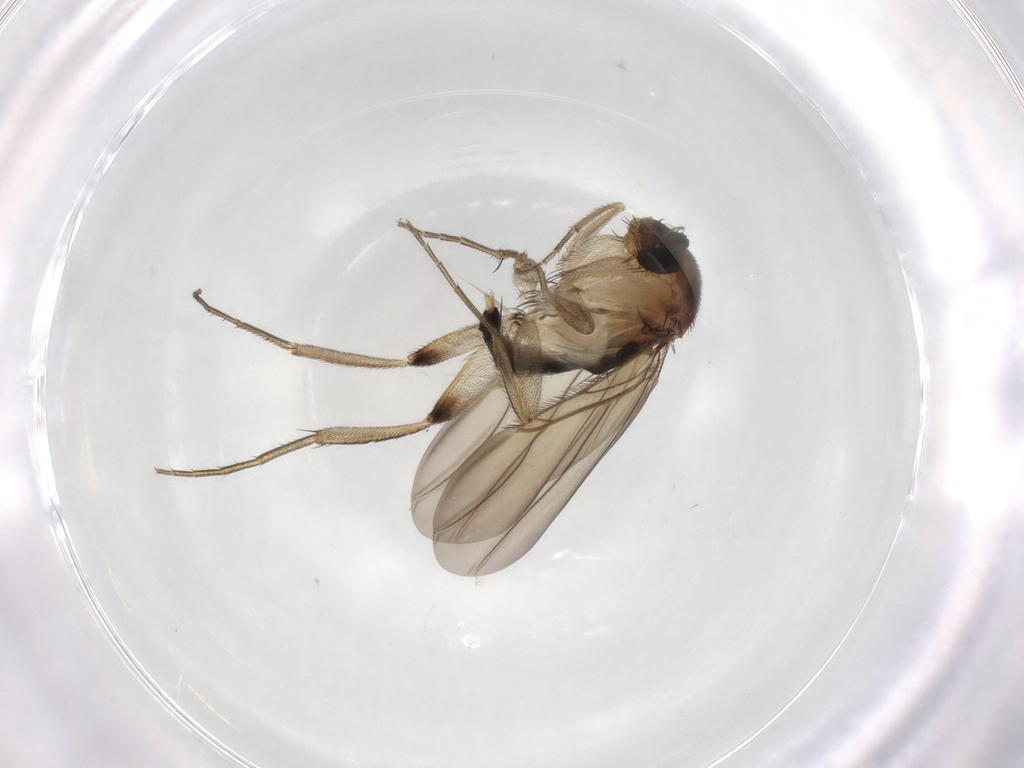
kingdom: Animalia
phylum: Arthropoda
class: Insecta
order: Diptera
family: Phoridae
